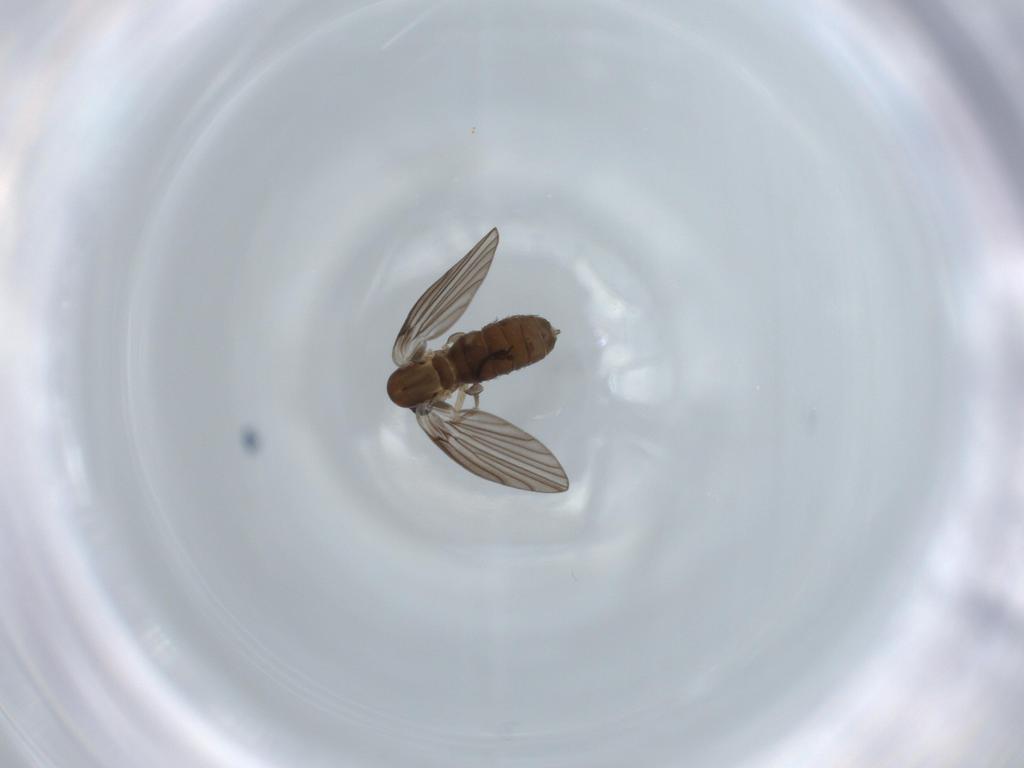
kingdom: Animalia
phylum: Arthropoda
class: Insecta
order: Diptera
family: Psychodidae
